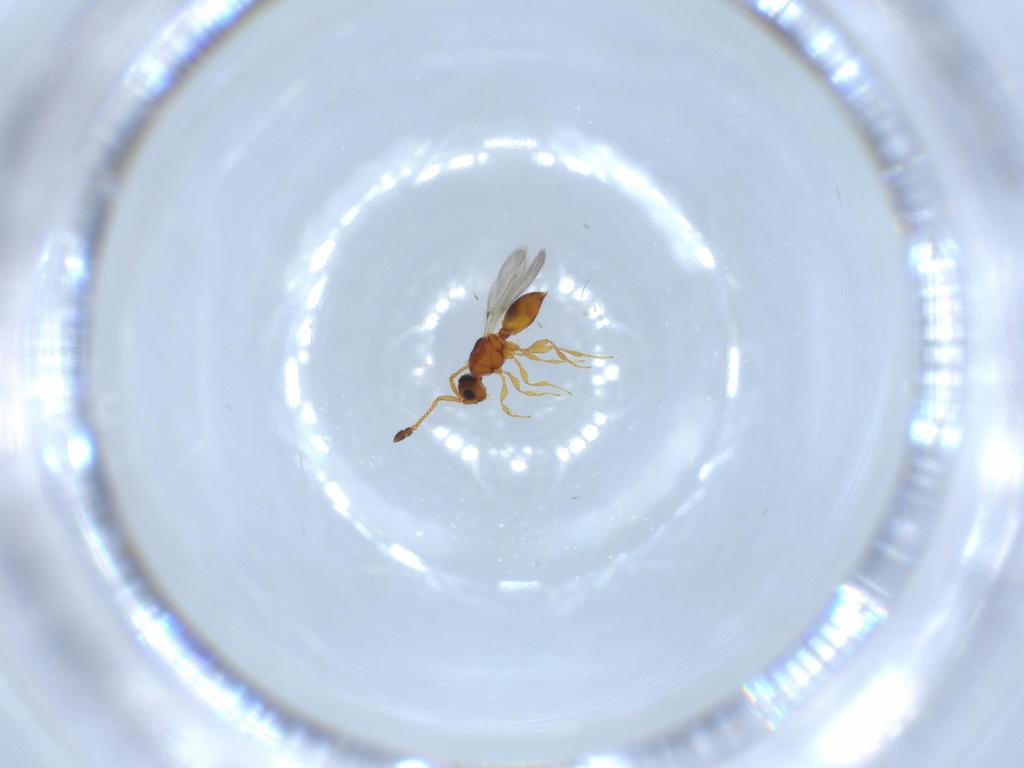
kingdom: Animalia
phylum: Arthropoda
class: Insecta
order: Hymenoptera
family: Diapriidae
